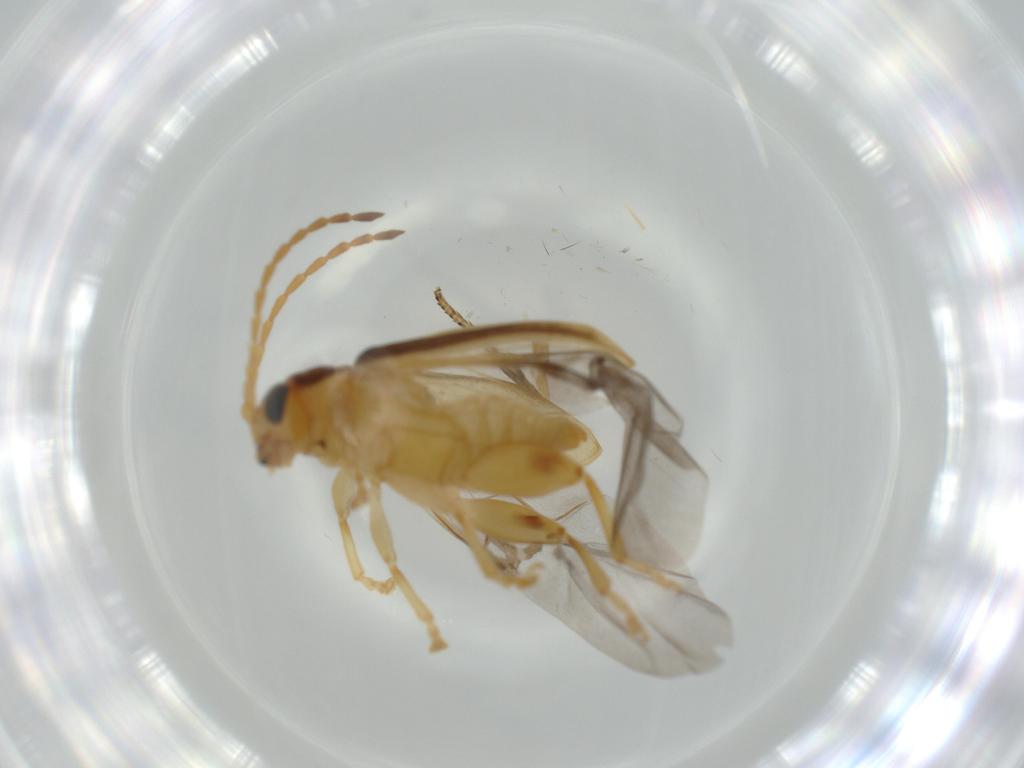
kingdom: Animalia
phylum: Arthropoda
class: Insecta
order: Coleoptera
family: Chrysomelidae
